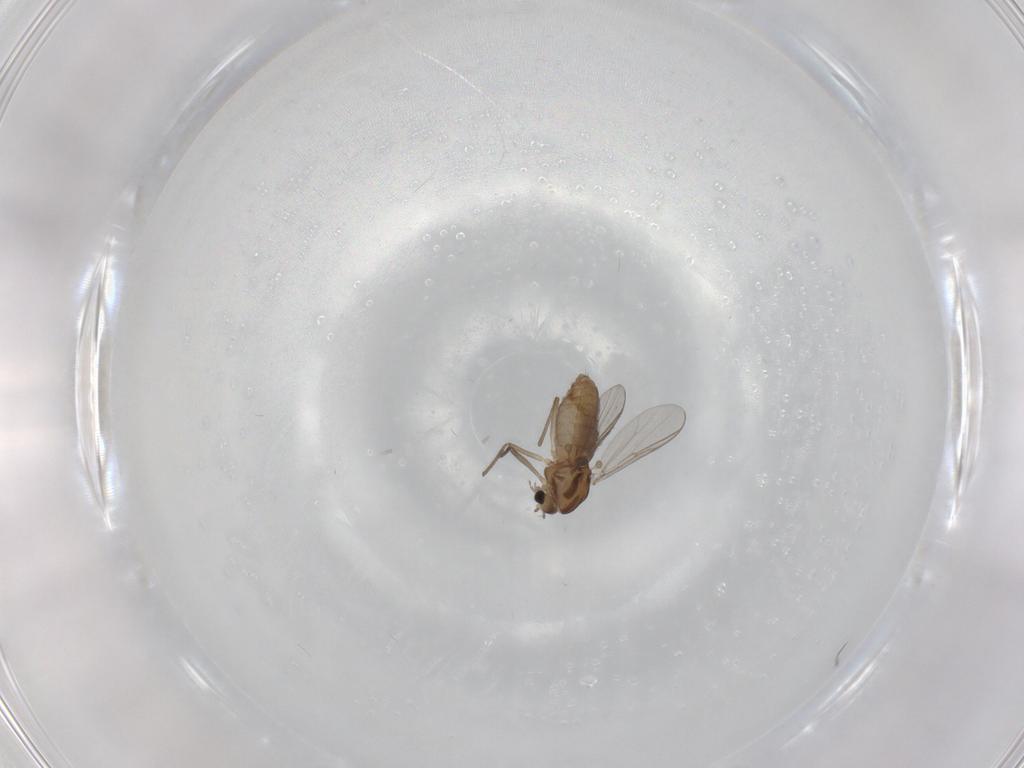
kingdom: Animalia
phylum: Arthropoda
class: Insecta
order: Diptera
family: Chironomidae
